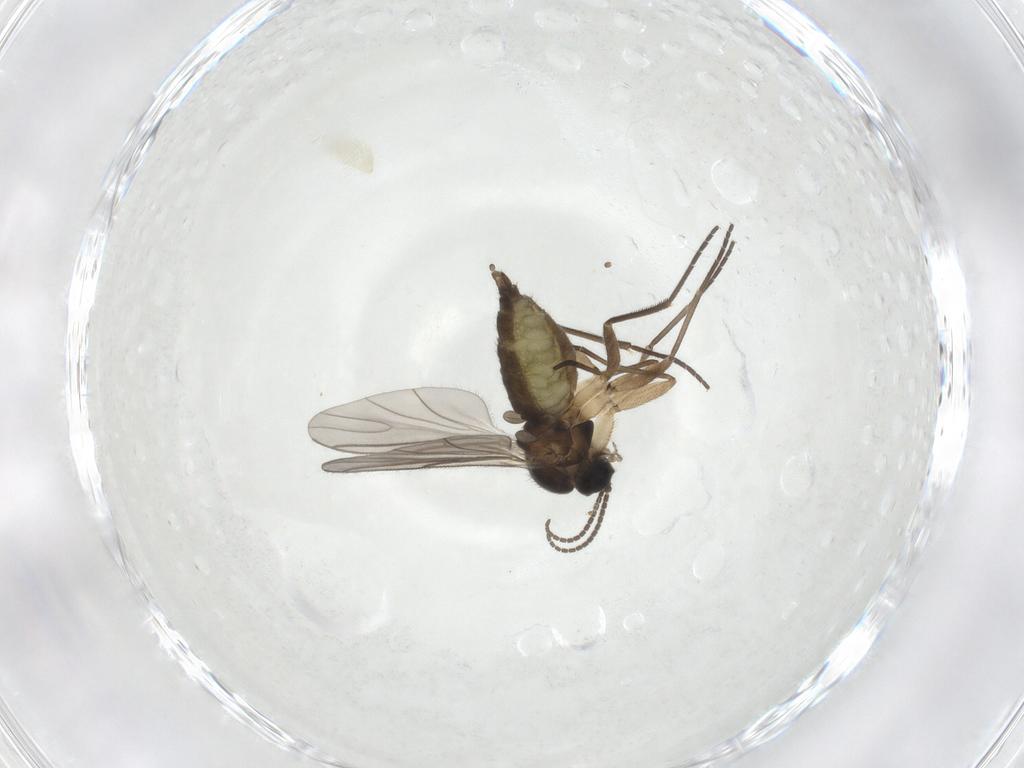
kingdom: Animalia
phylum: Arthropoda
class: Insecta
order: Diptera
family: Sciaridae
